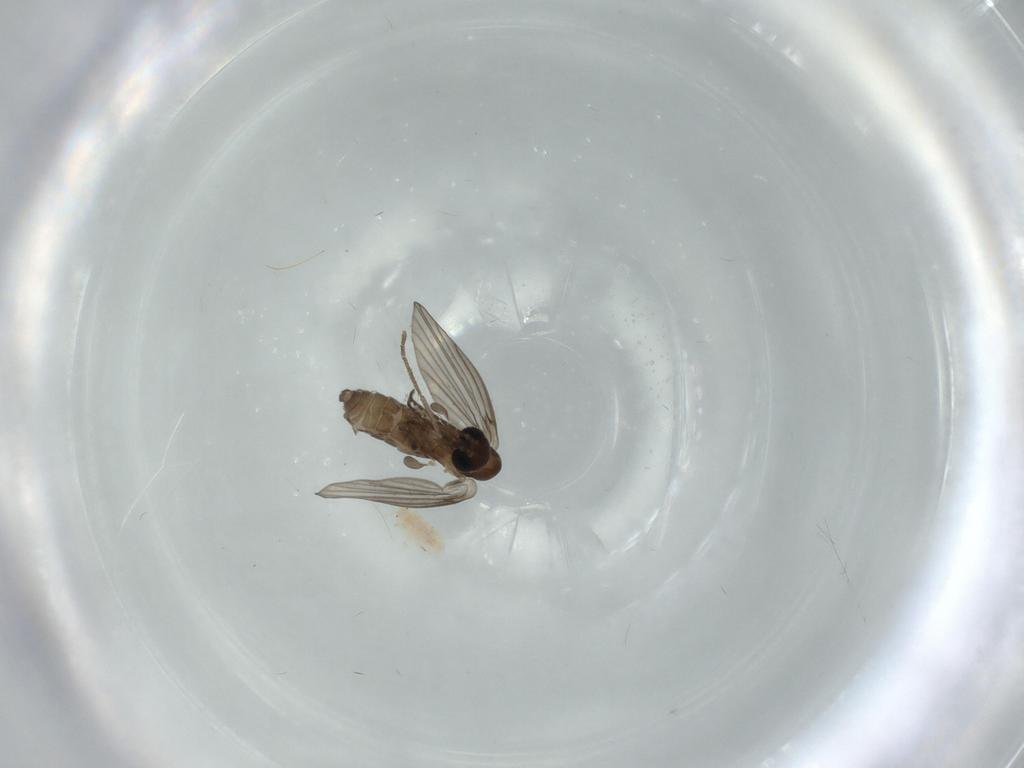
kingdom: Animalia
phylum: Arthropoda
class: Insecta
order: Diptera
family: Psychodidae
